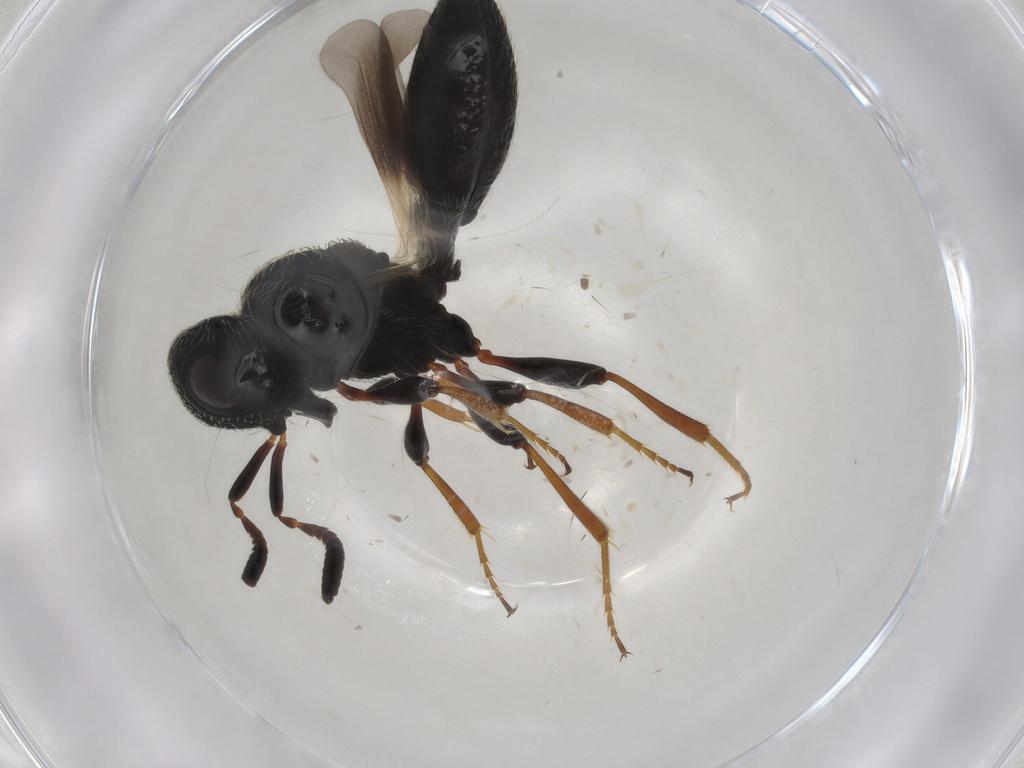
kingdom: Animalia
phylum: Arthropoda
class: Insecta
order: Hymenoptera
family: Scelionidae
